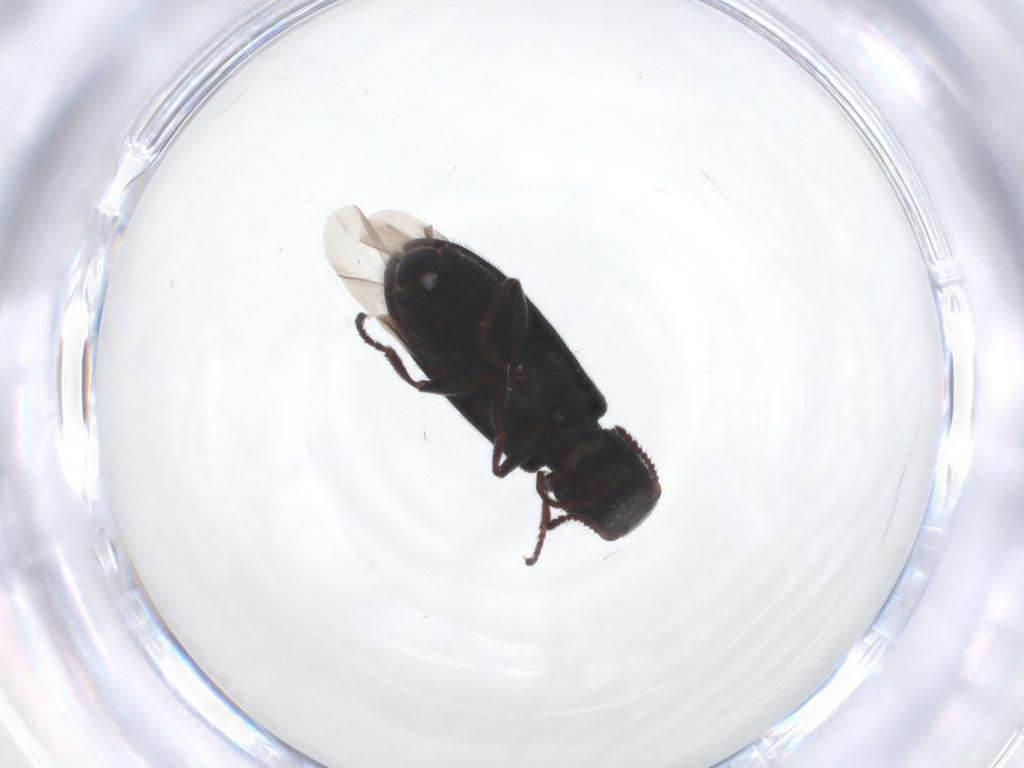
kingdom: Animalia
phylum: Arthropoda
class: Insecta
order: Coleoptera
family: Melyridae
